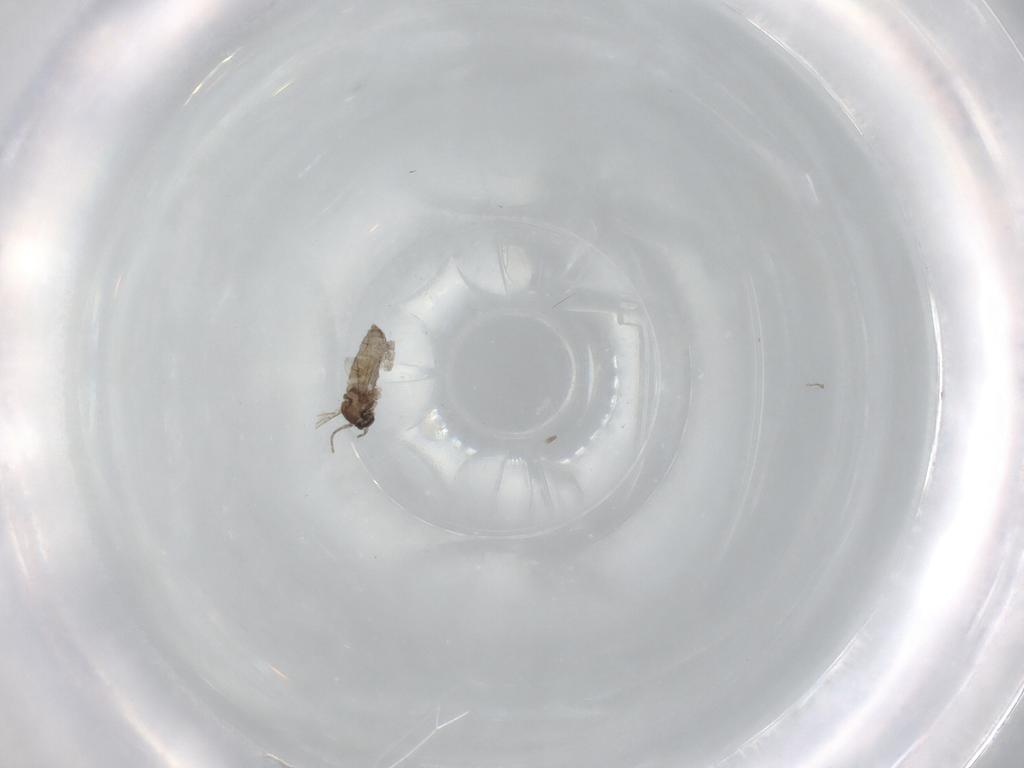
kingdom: Animalia
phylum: Arthropoda
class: Insecta
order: Diptera
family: Cecidomyiidae
